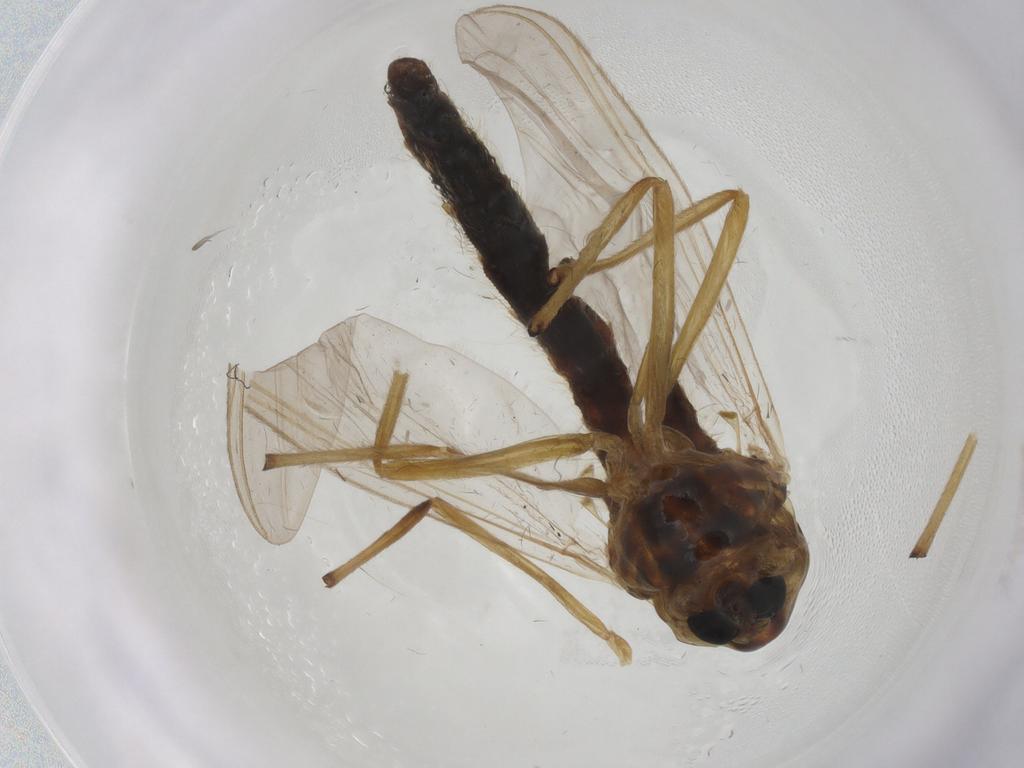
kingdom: Animalia
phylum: Arthropoda
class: Insecta
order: Diptera
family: Chironomidae
